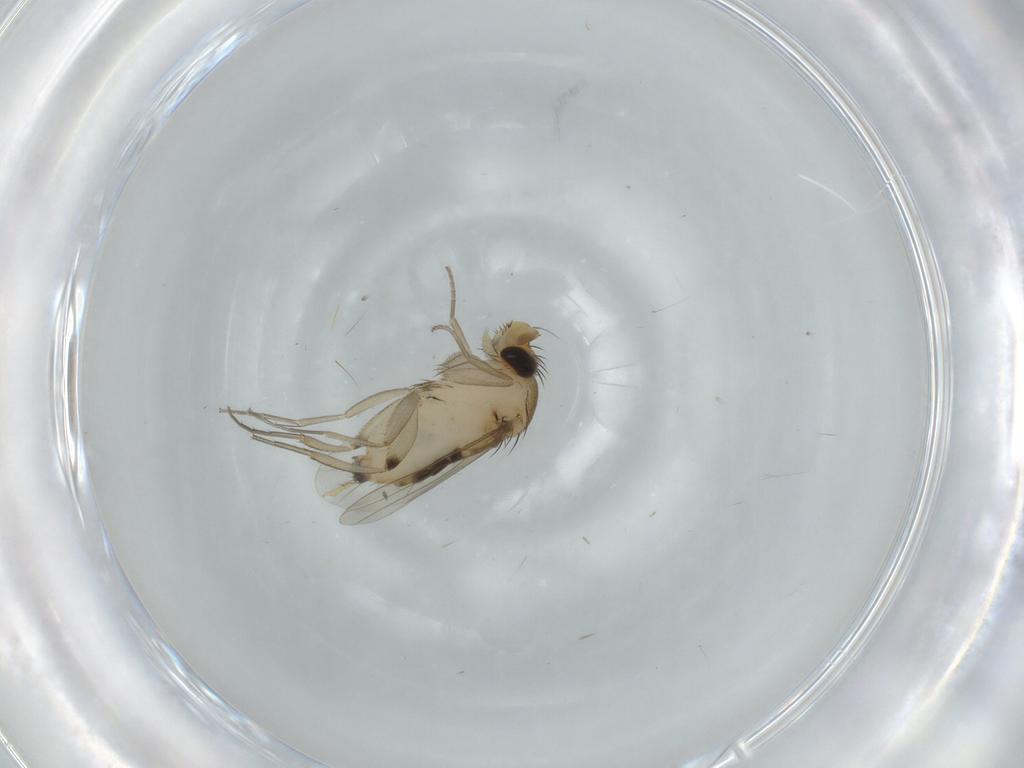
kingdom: Animalia
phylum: Arthropoda
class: Insecta
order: Diptera
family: Phoridae
